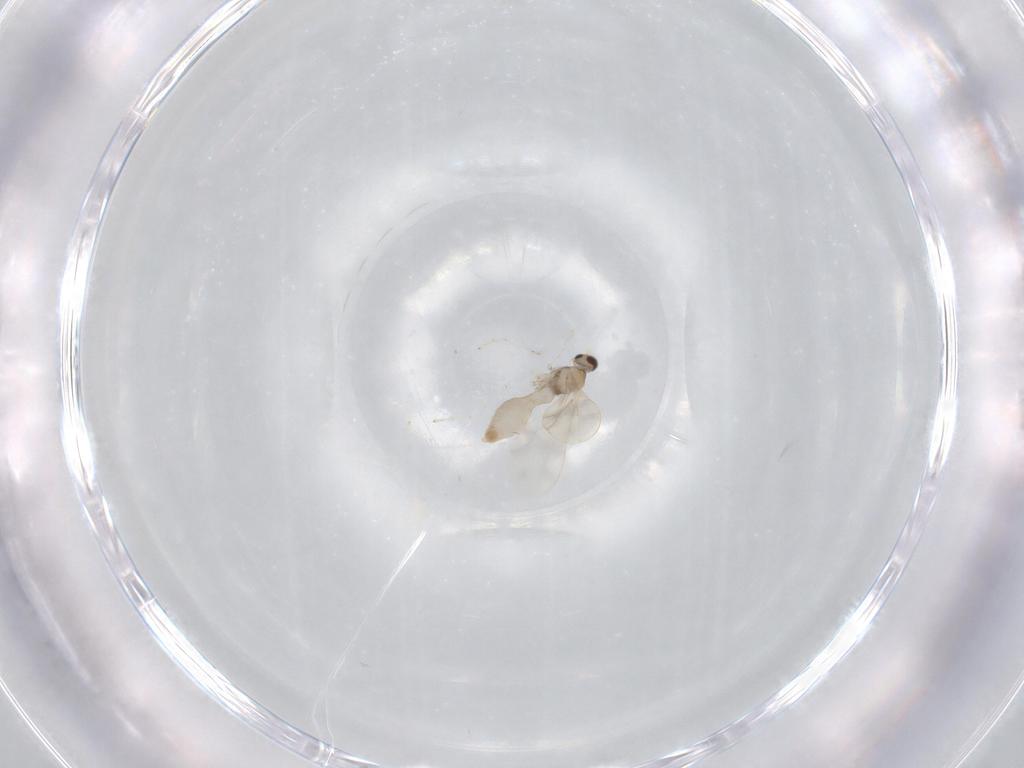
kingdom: Animalia
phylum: Arthropoda
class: Insecta
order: Diptera
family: Cecidomyiidae
